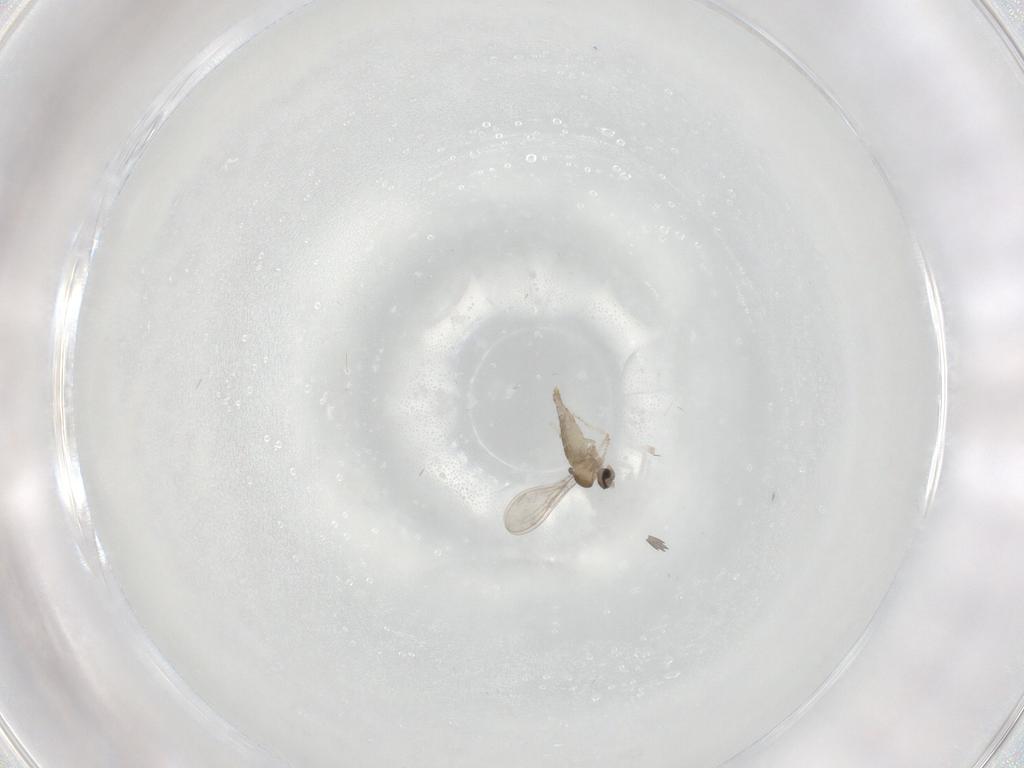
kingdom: Animalia
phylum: Arthropoda
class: Insecta
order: Diptera
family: Cecidomyiidae
